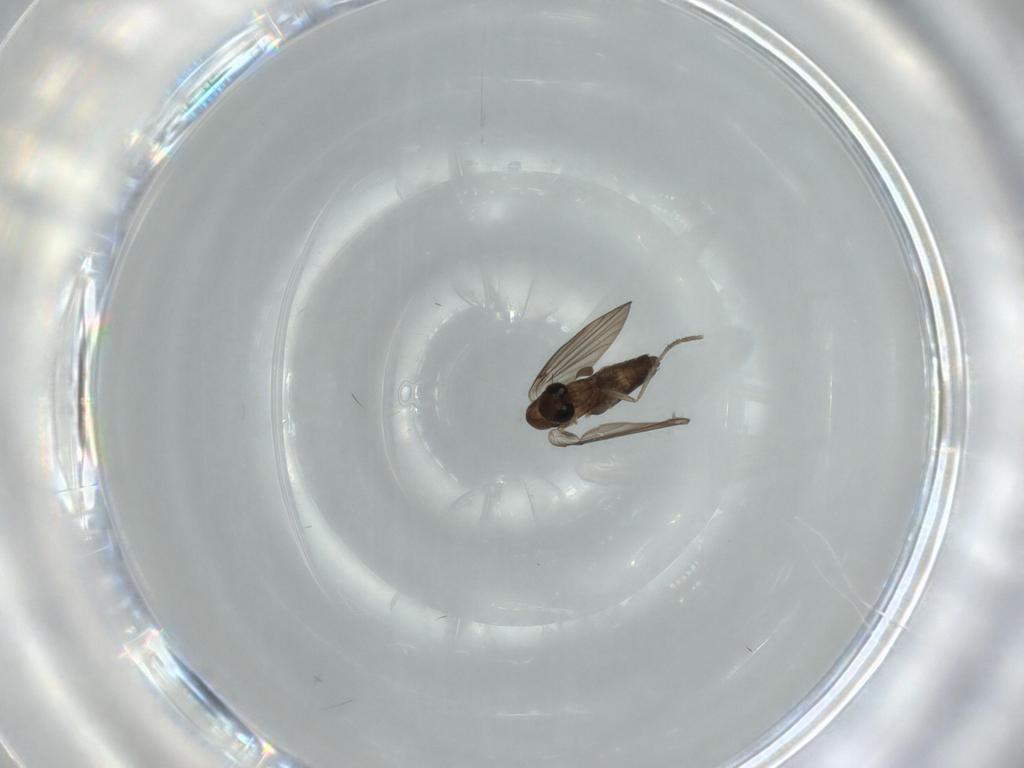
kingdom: Animalia
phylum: Arthropoda
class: Insecta
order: Diptera
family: Psychodidae
